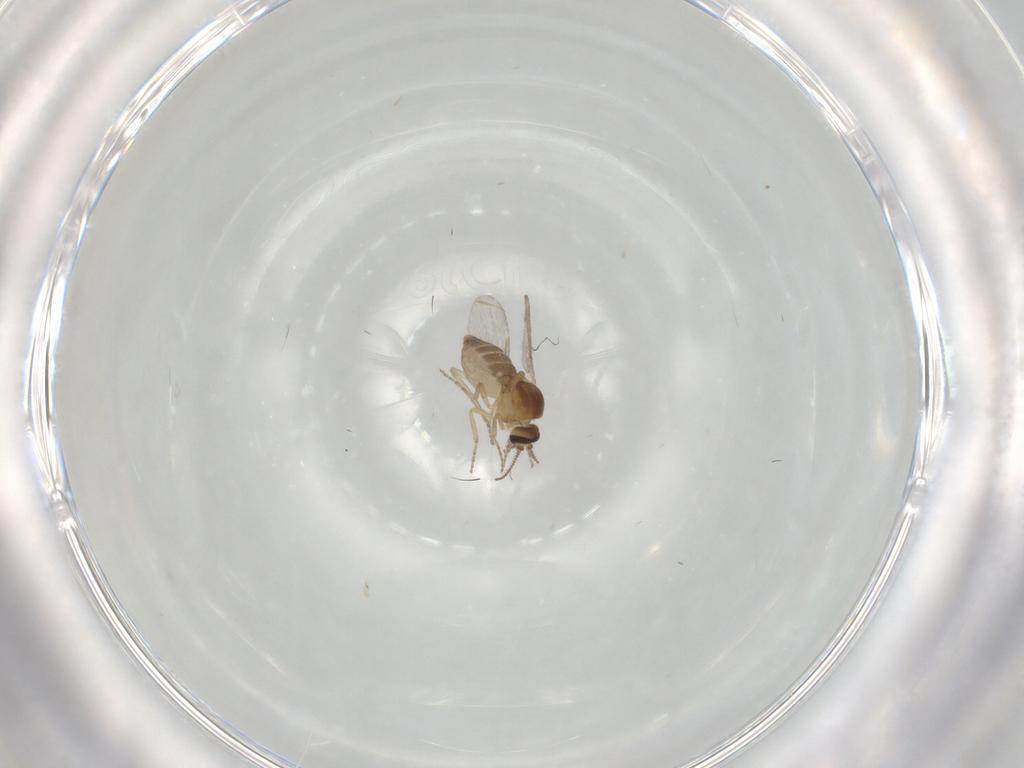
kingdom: Animalia
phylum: Arthropoda
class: Insecta
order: Diptera
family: Ceratopogonidae
